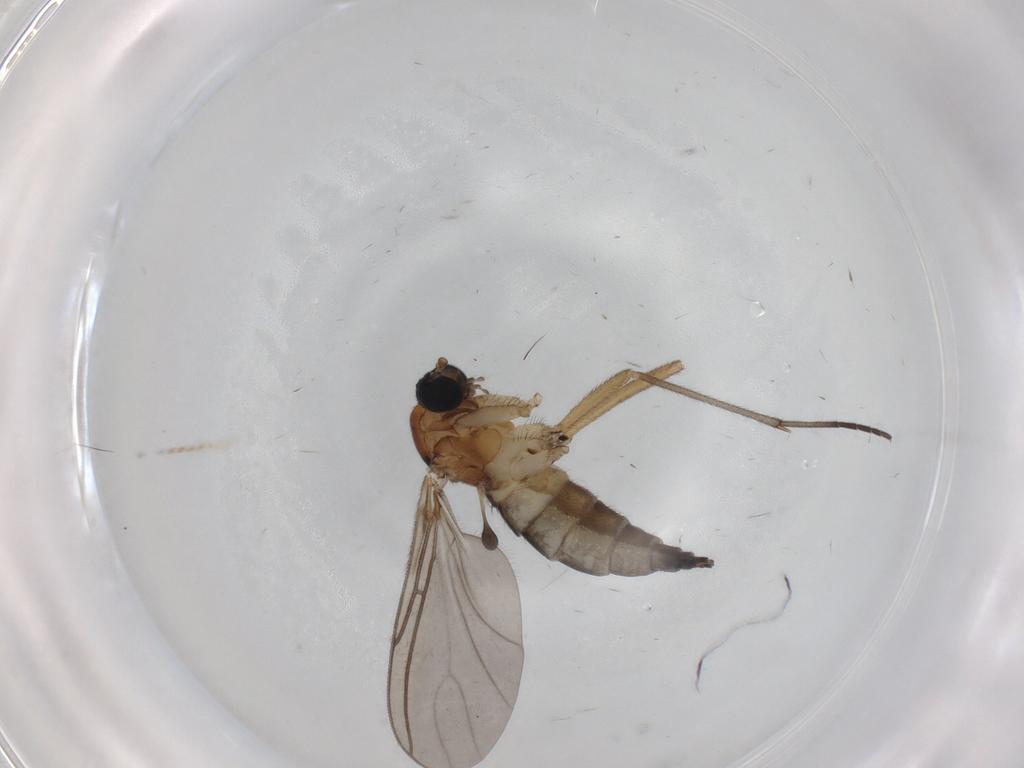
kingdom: Animalia
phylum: Arthropoda
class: Insecta
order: Diptera
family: Sciaridae
